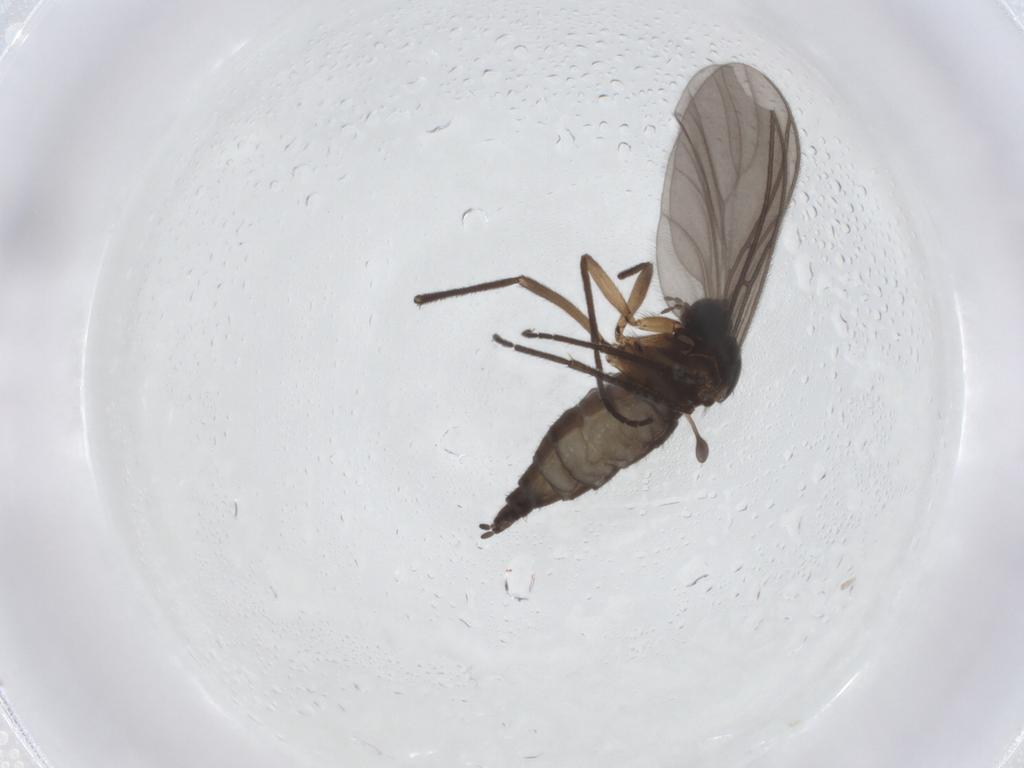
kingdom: Animalia
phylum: Arthropoda
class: Insecta
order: Diptera
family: Sciaridae
